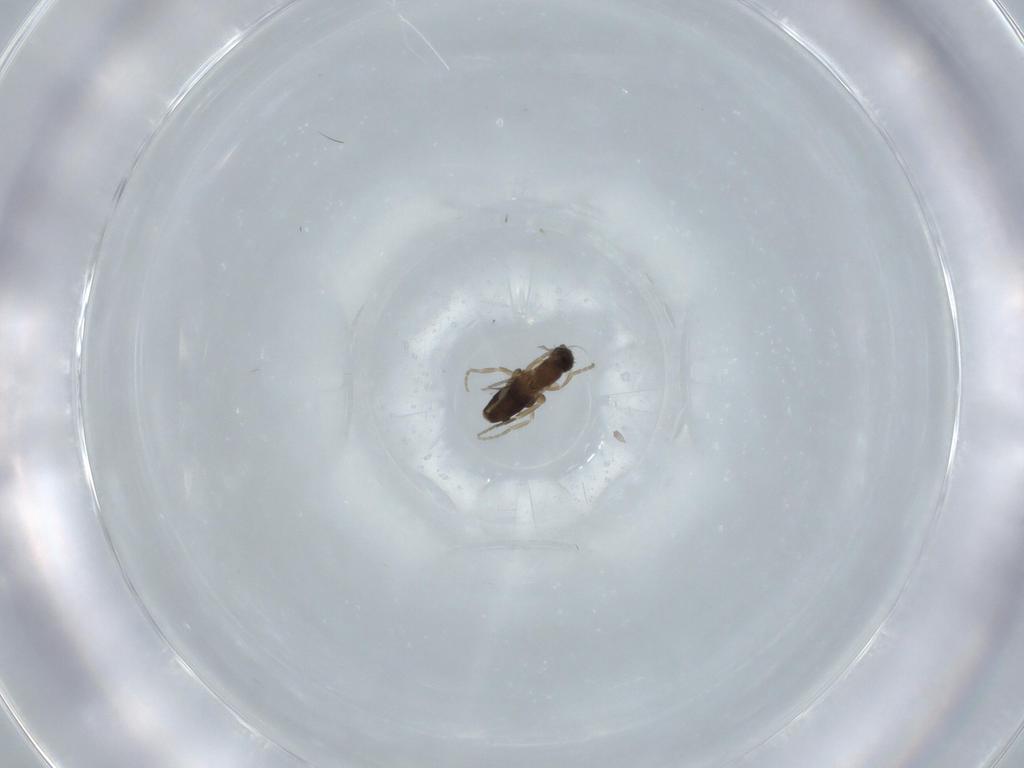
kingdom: Animalia
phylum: Arthropoda
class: Insecta
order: Diptera
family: Phoridae
